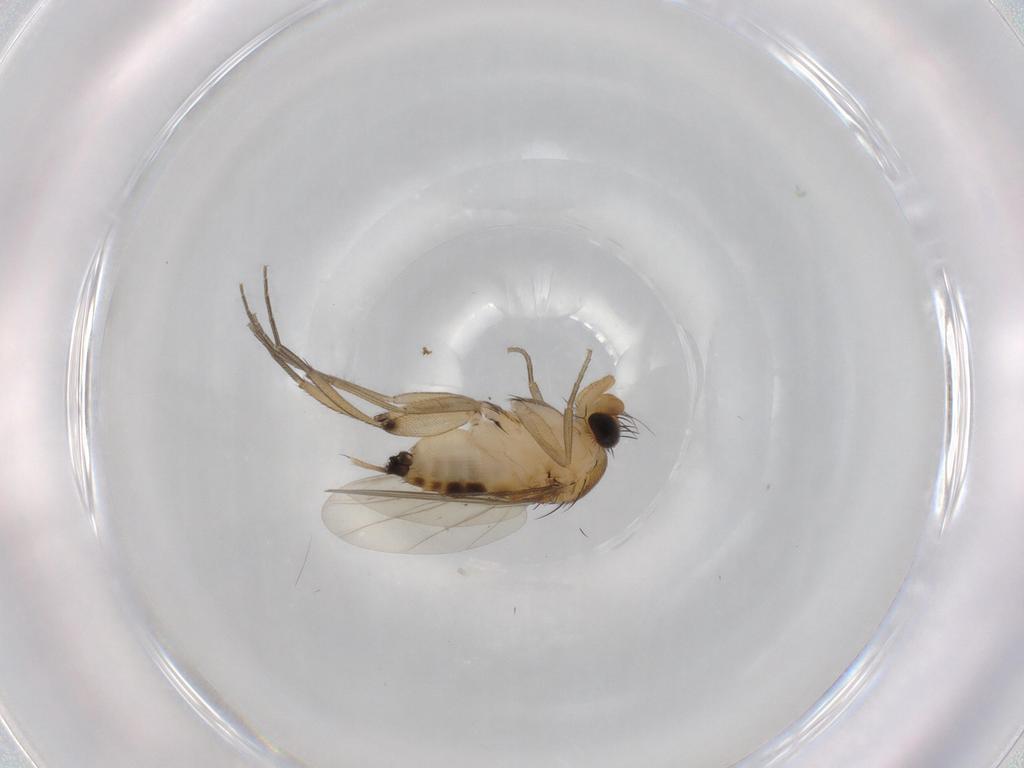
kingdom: Animalia
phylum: Arthropoda
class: Insecta
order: Diptera
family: Phoridae
